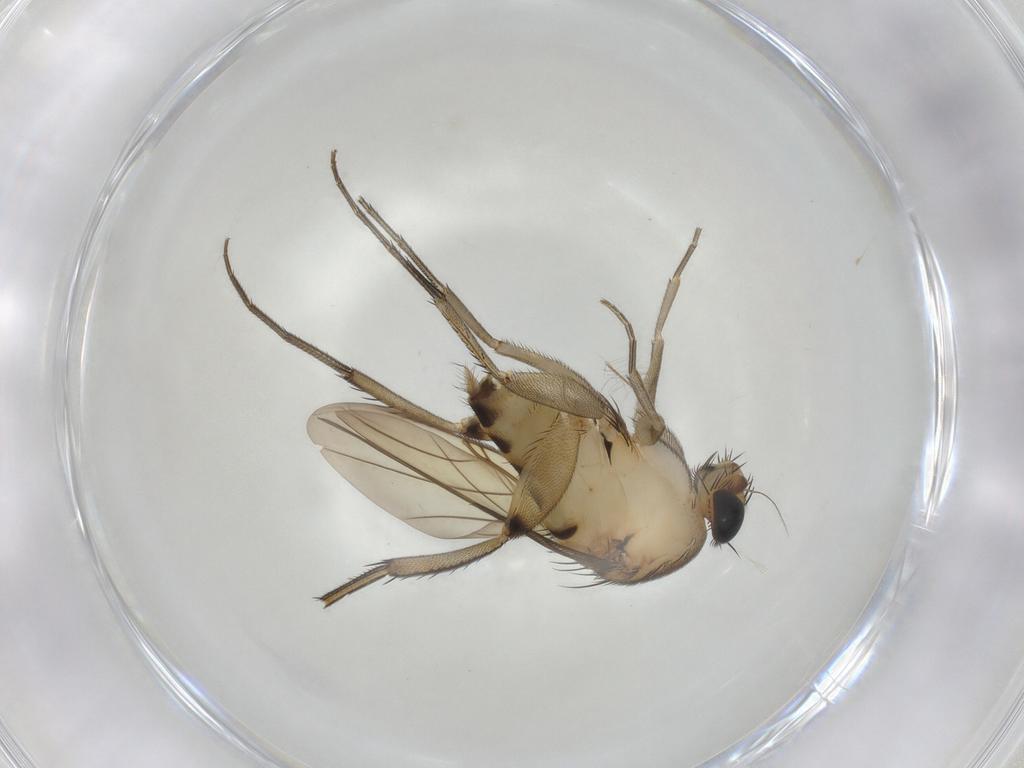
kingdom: Animalia
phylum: Arthropoda
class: Insecta
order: Diptera
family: Phoridae
